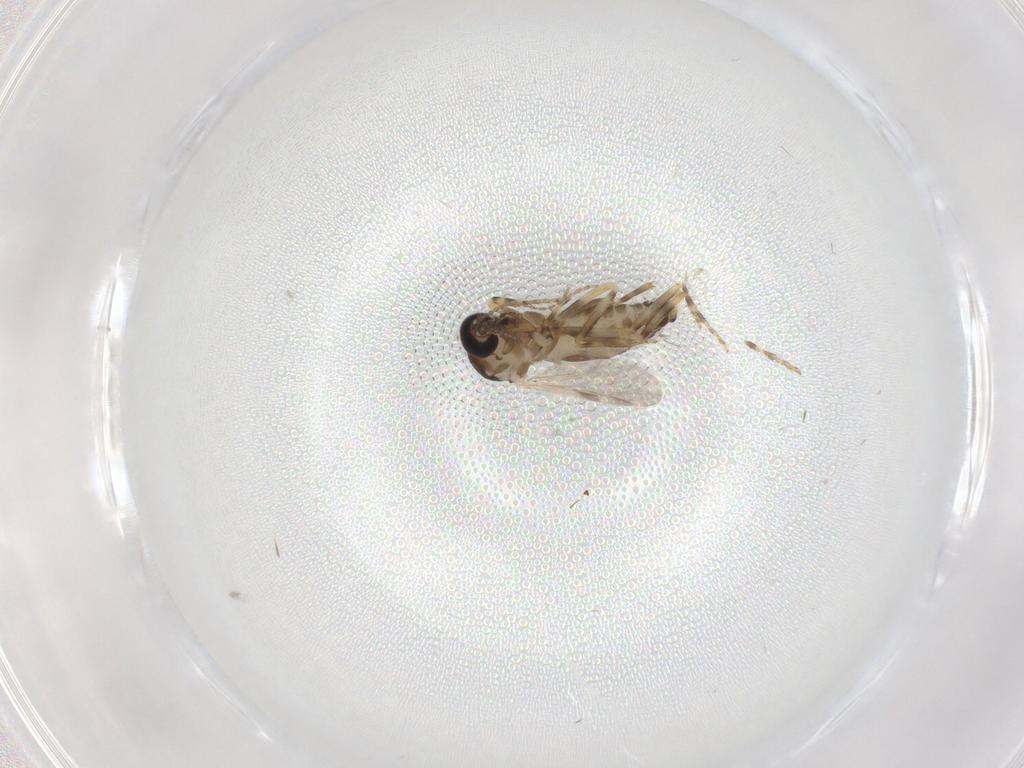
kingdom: Animalia
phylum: Arthropoda
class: Insecta
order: Diptera
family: Ceratopogonidae
